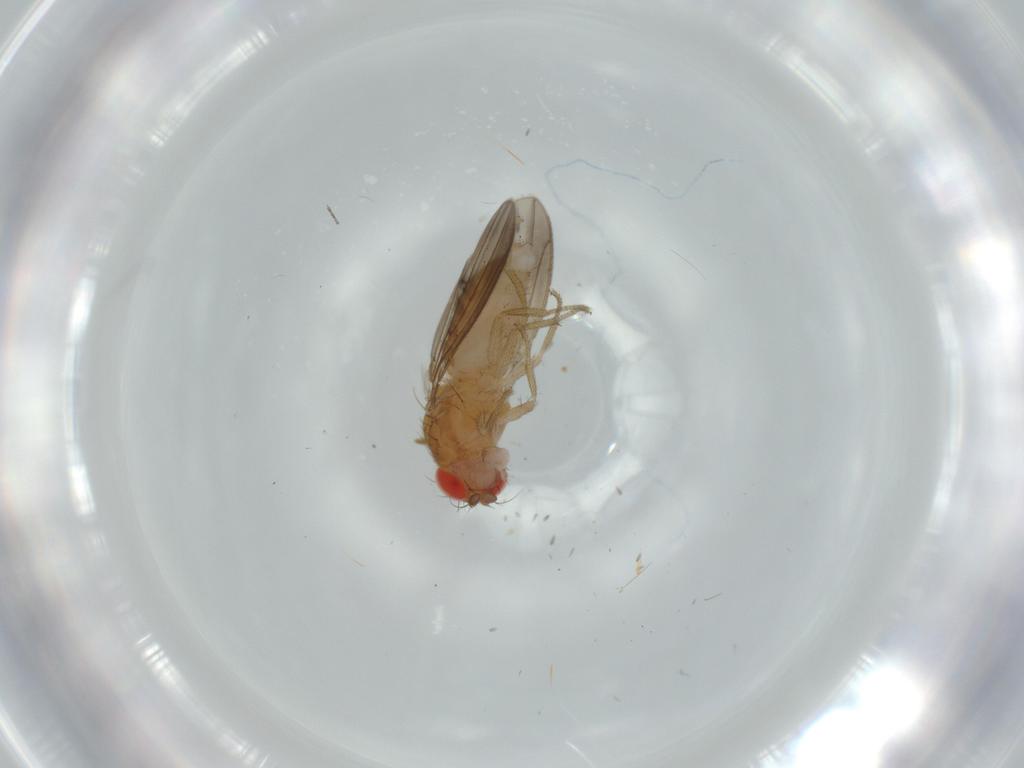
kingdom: Animalia
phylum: Arthropoda
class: Insecta
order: Diptera
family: Drosophilidae
